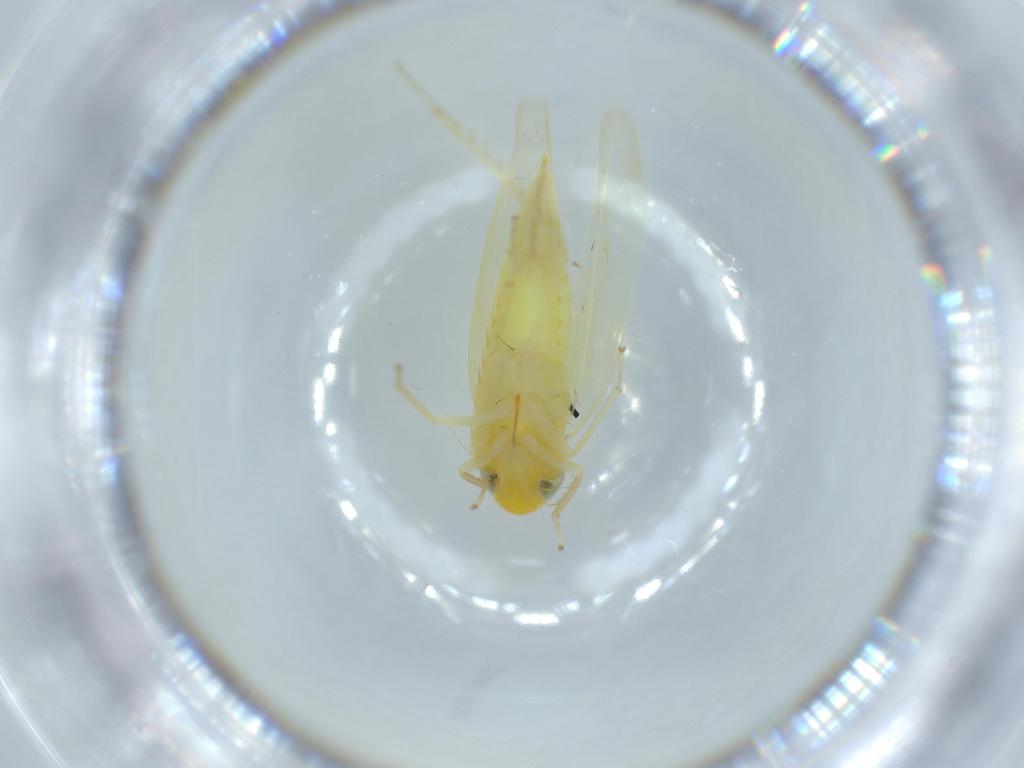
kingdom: Animalia
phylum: Arthropoda
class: Insecta
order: Hemiptera
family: Cicadellidae
